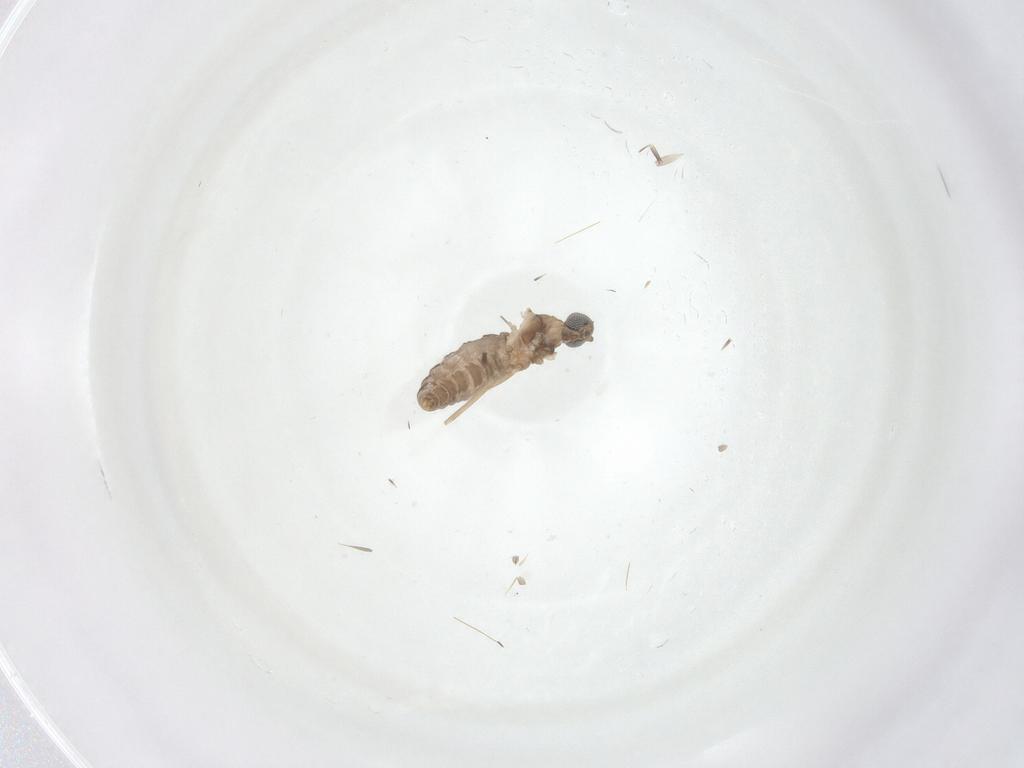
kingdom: Animalia
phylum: Arthropoda
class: Insecta
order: Diptera
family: Cecidomyiidae
